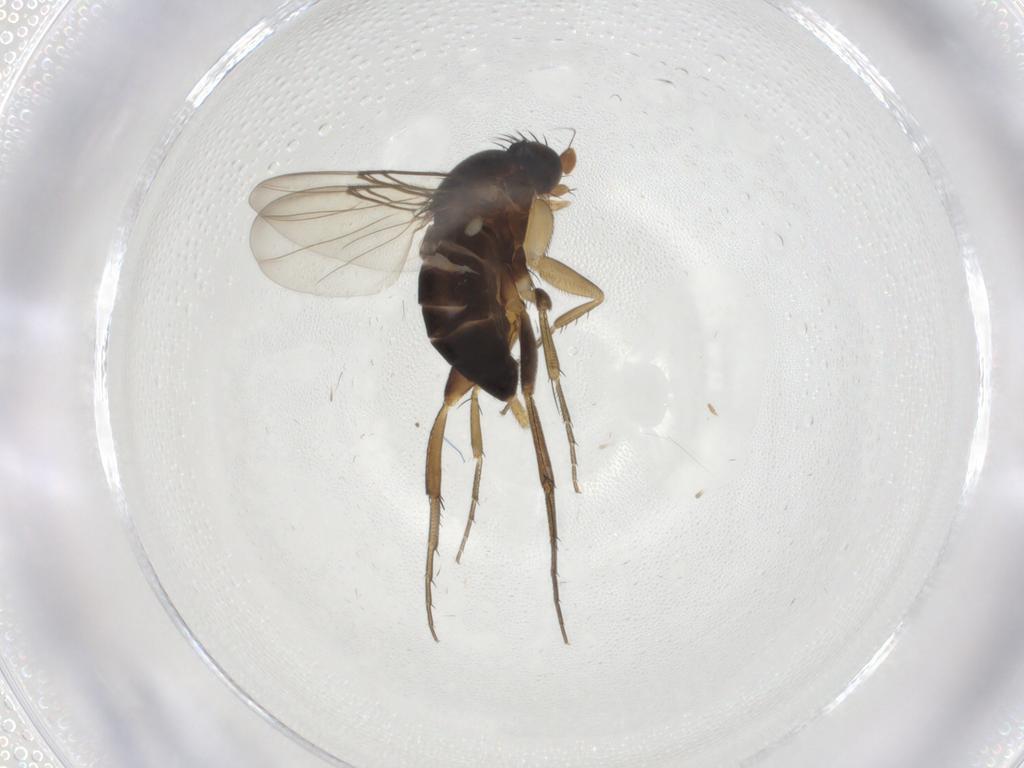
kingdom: Animalia
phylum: Arthropoda
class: Insecta
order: Diptera
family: Phoridae
